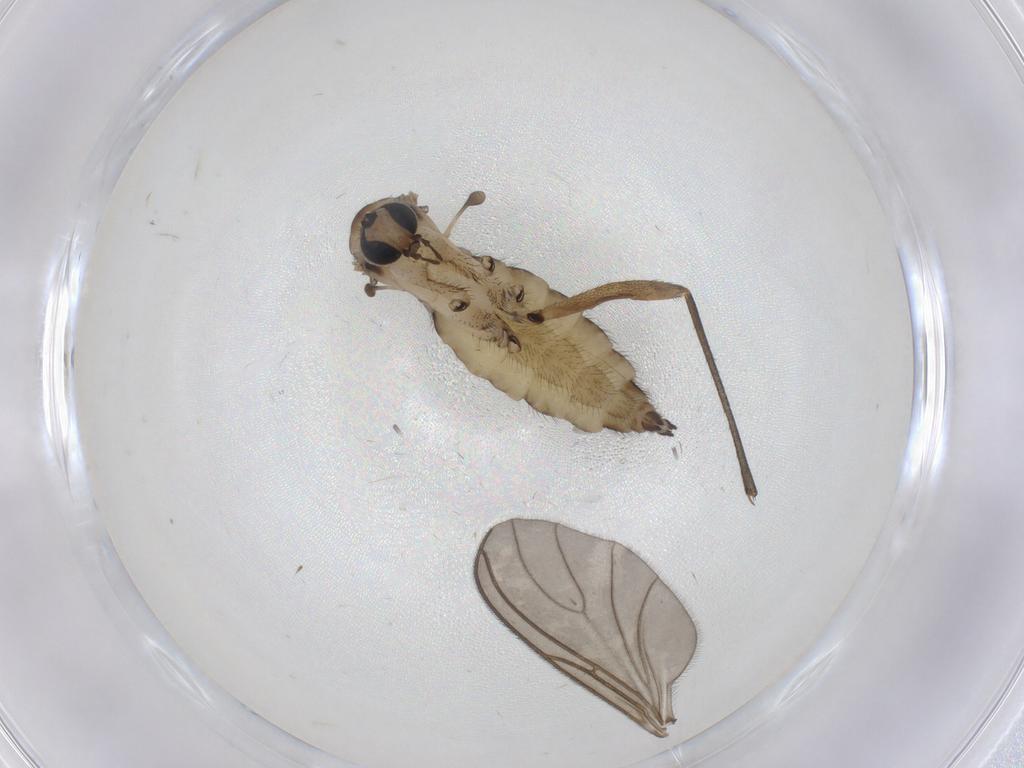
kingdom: Animalia
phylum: Arthropoda
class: Insecta
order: Diptera
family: Sciaridae
